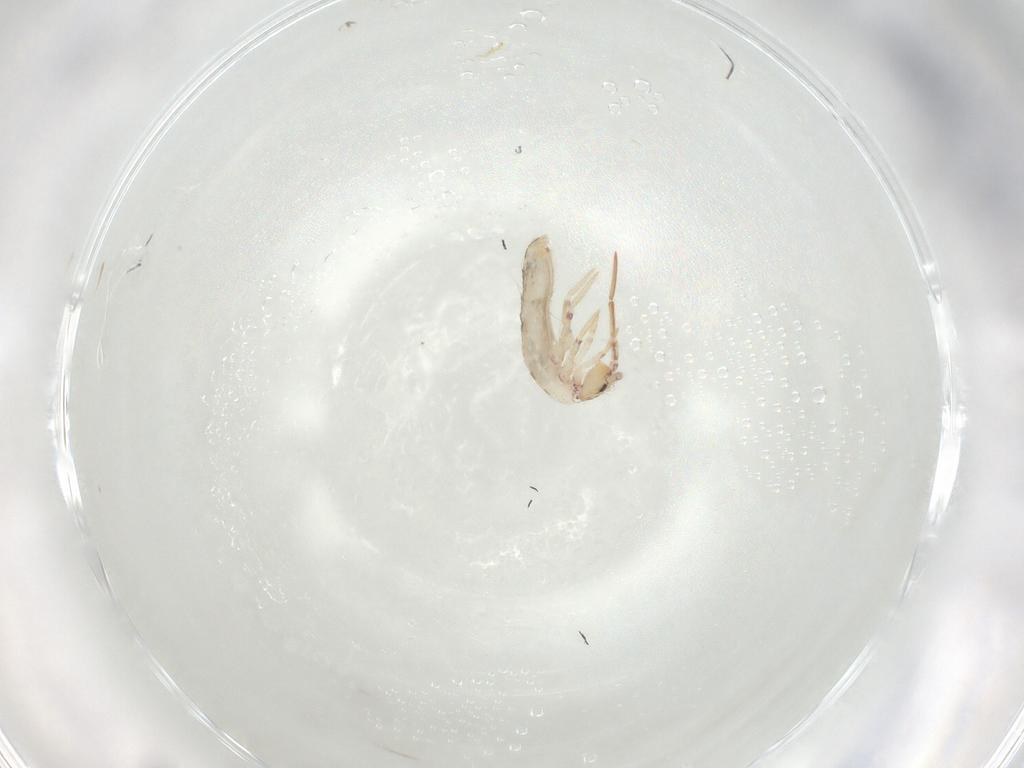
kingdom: Animalia
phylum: Arthropoda
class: Collembola
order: Entomobryomorpha
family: Entomobryidae
